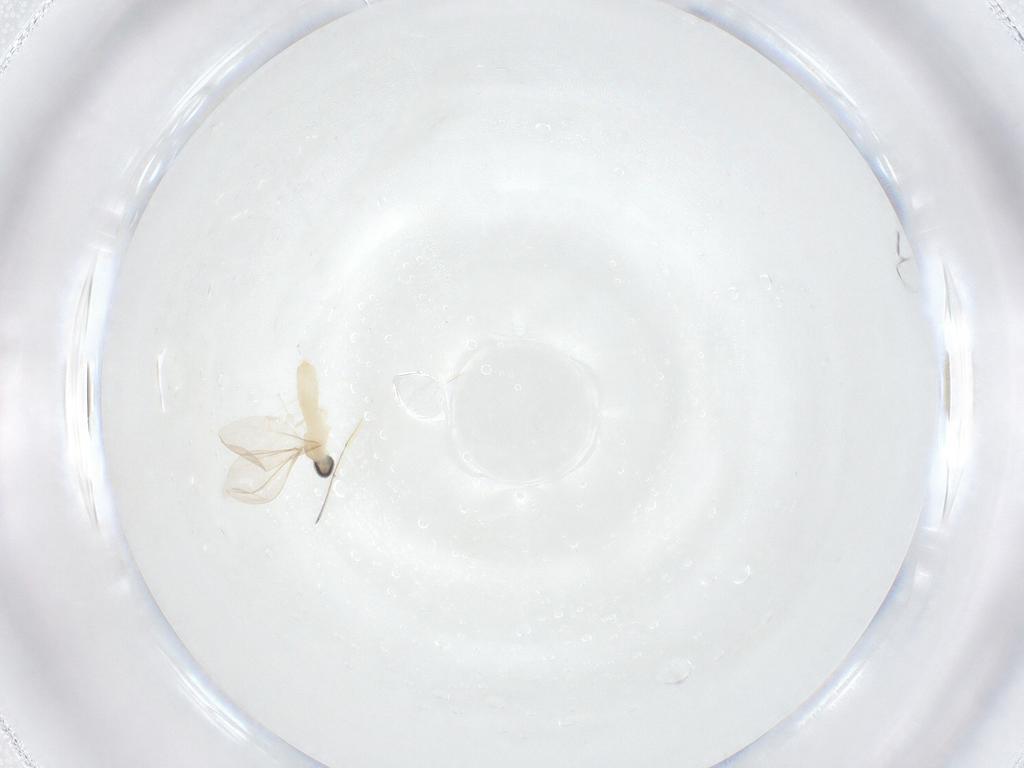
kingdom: Animalia
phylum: Arthropoda
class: Insecta
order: Diptera
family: Cecidomyiidae
